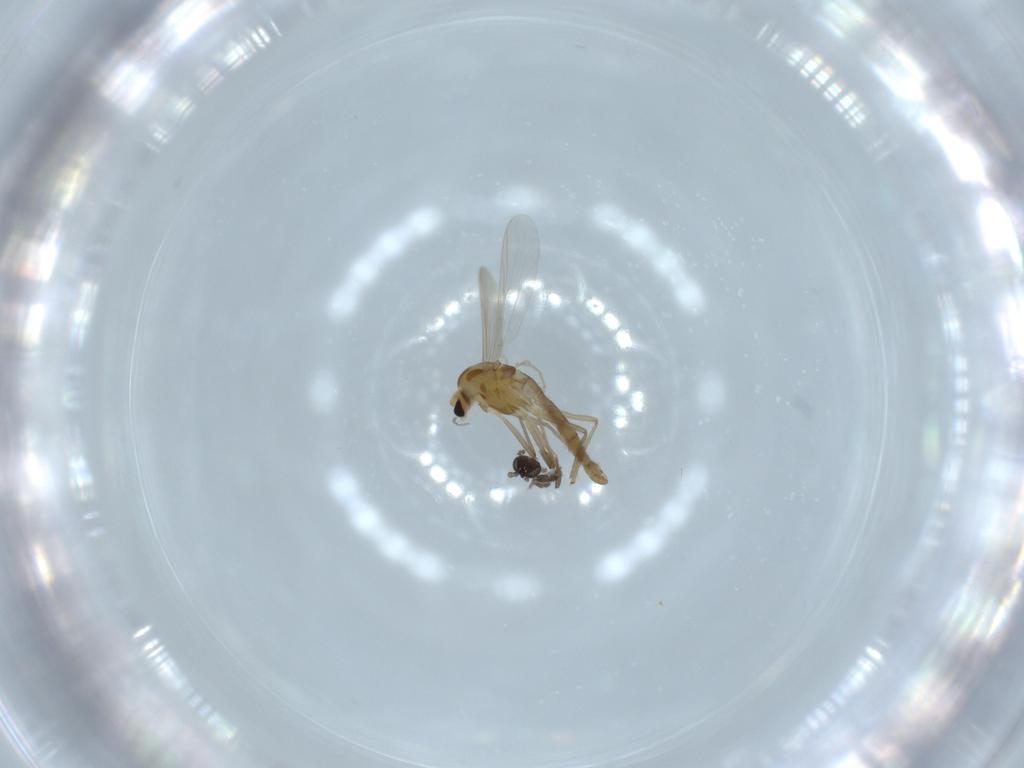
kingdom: Animalia
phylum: Arthropoda
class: Insecta
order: Diptera
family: Chironomidae
